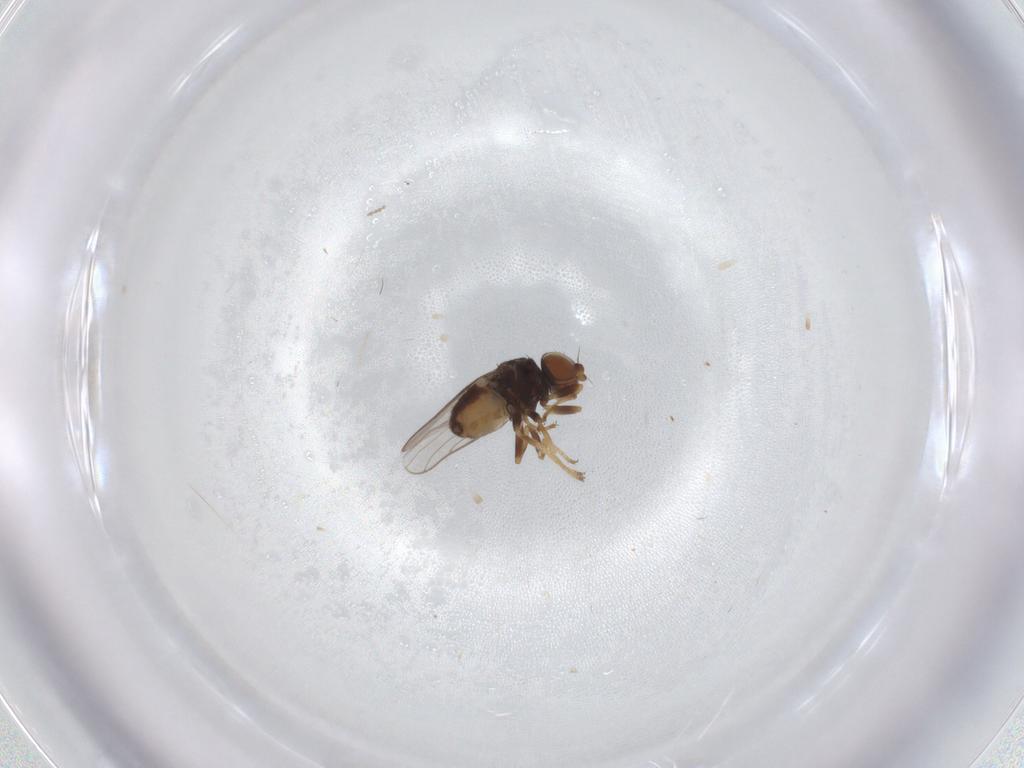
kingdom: Animalia
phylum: Arthropoda
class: Insecta
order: Diptera
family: Chloropidae
